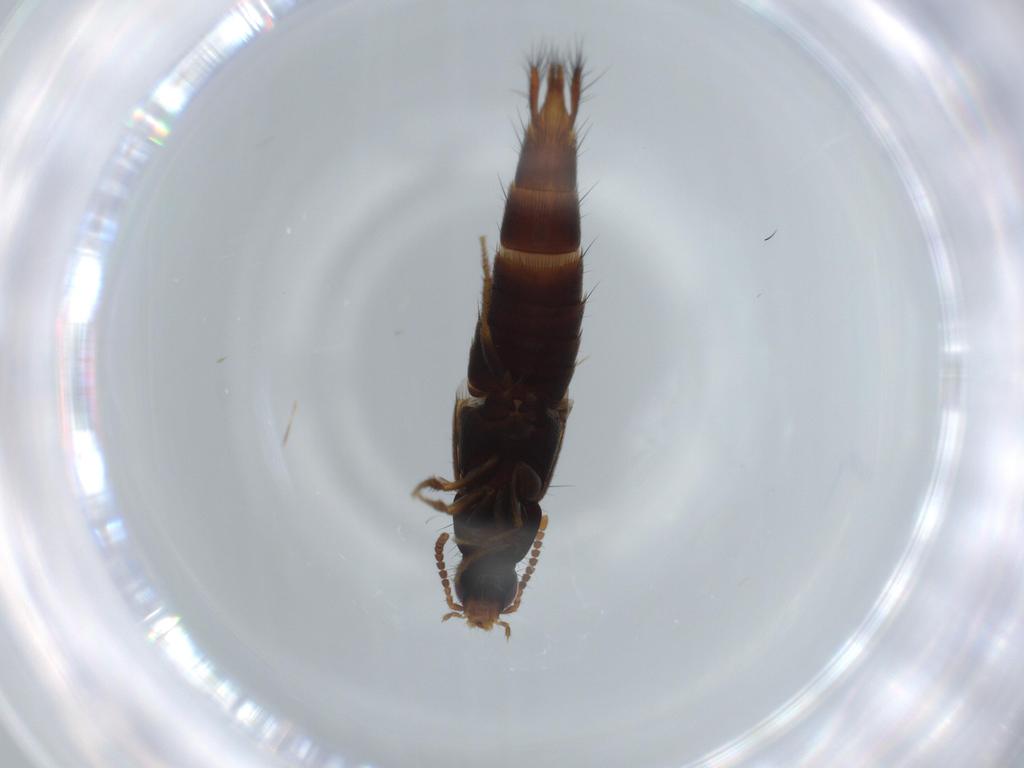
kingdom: Animalia
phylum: Arthropoda
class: Insecta
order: Coleoptera
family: Staphylinidae
